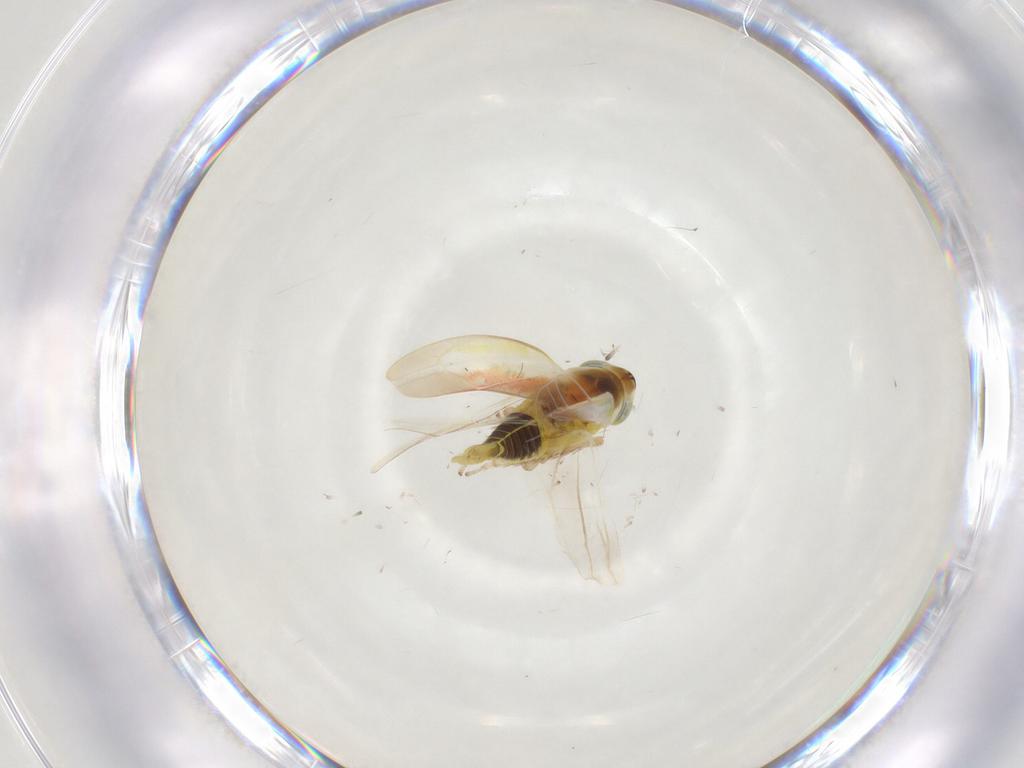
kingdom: Animalia
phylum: Arthropoda
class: Insecta
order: Hemiptera
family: Cicadellidae
